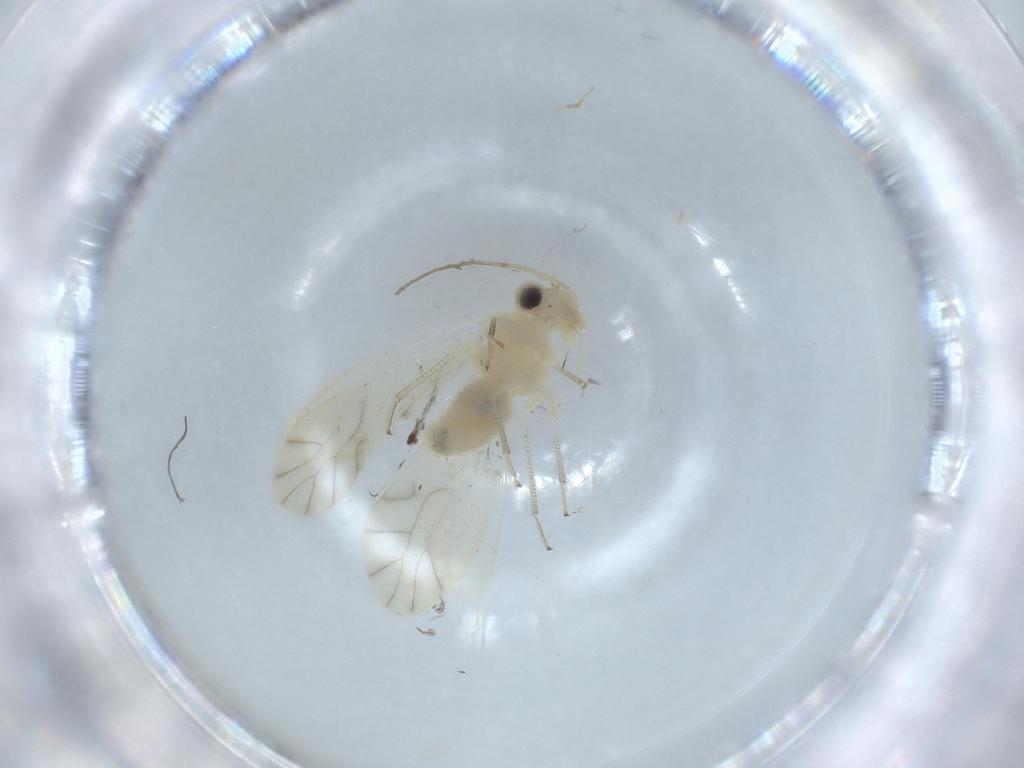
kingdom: Animalia
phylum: Arthropoda
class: Insecta
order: Psocodea
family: Caeciliusidae
